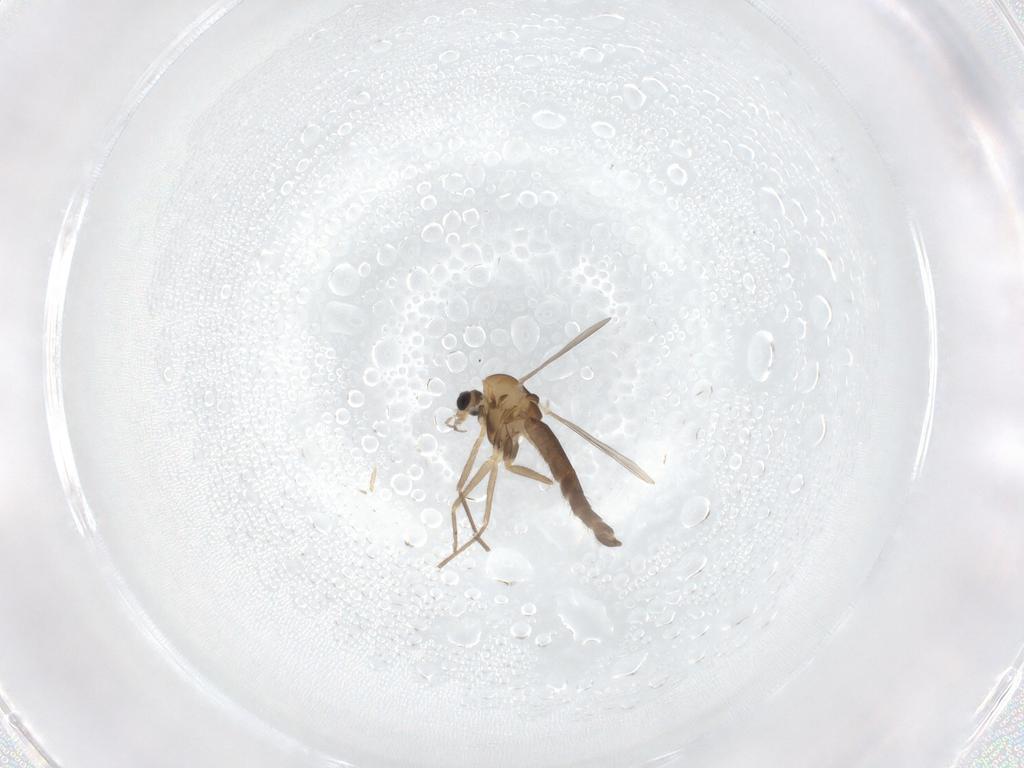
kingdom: Animalia
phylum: Arthropoda
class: Insecta
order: Diptera
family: Chironomidae
